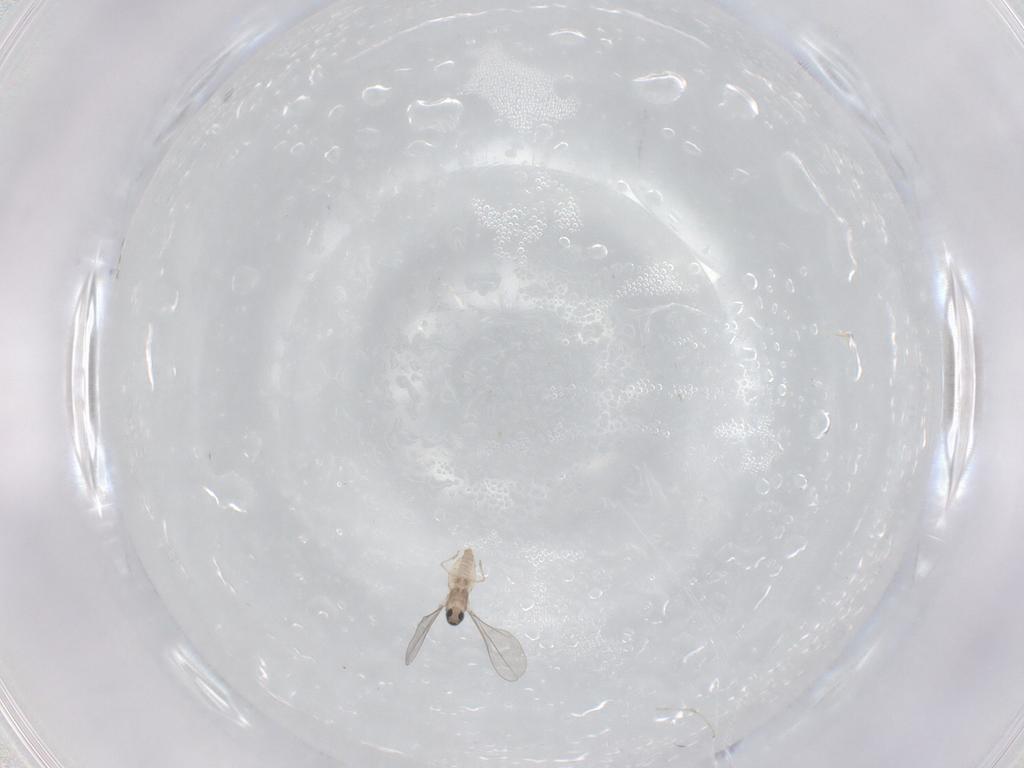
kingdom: Animalia
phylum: Arthropoda
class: Insecta
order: Diptera
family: Cecidomyiidae
